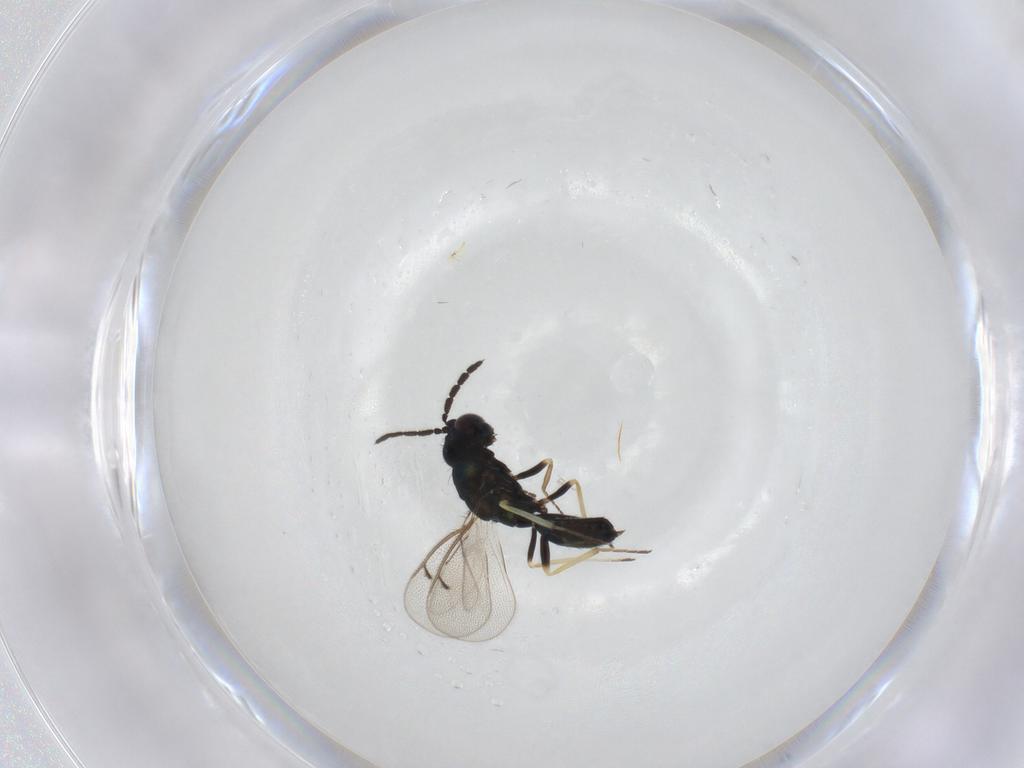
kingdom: Animalia
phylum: Arthropoda
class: Insecta
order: Hymenoptera
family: Eulophidae
